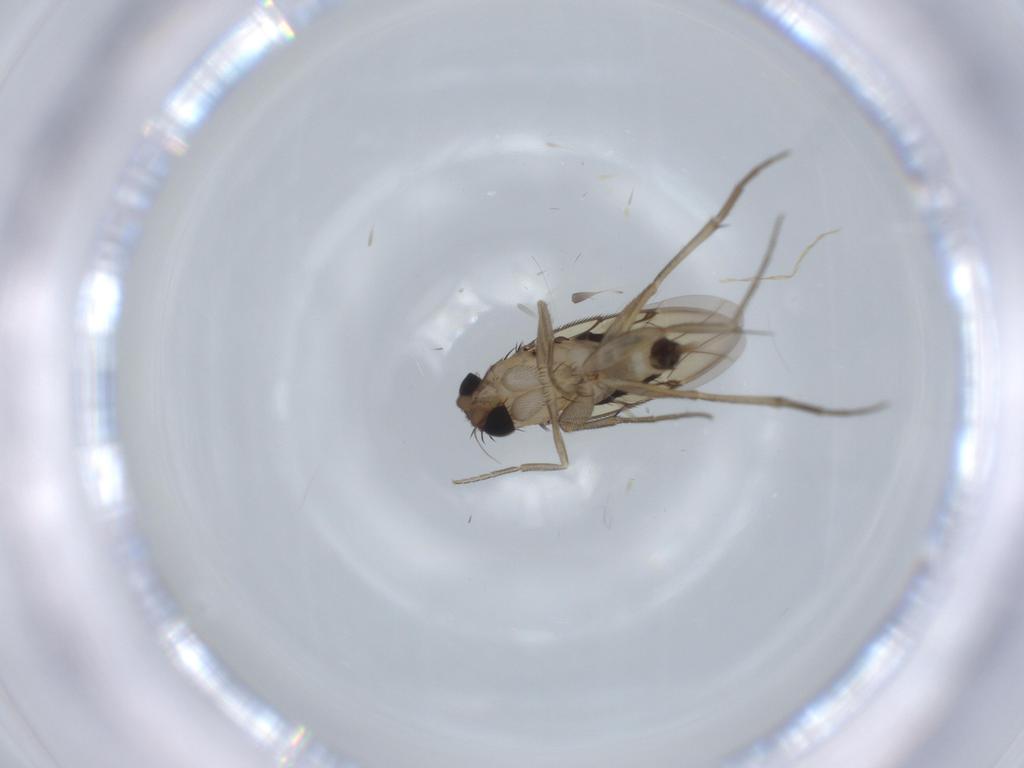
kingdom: Animalia
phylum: Arthropoda
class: Insecta
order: Diptera
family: Phoridae
